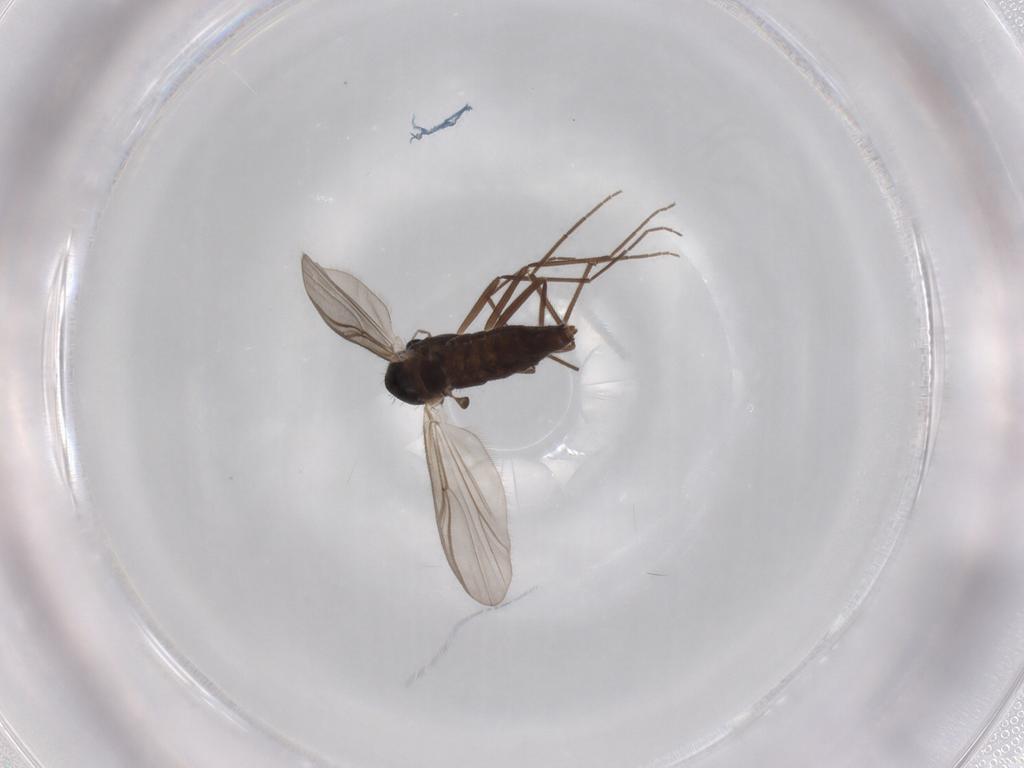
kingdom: Animalia
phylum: Arthropoda
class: Insecta
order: Diptera
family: Chironomidae
